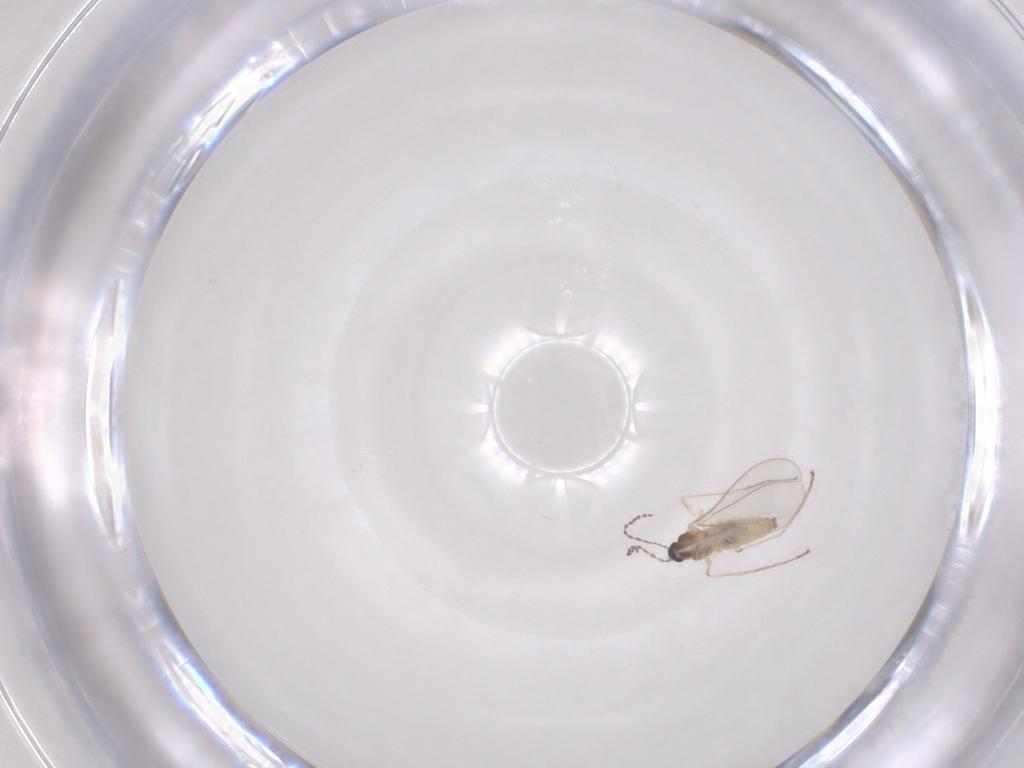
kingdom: Animalia
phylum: Arthropoda
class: Insecta
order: Diptera
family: Cecidomyiidae
